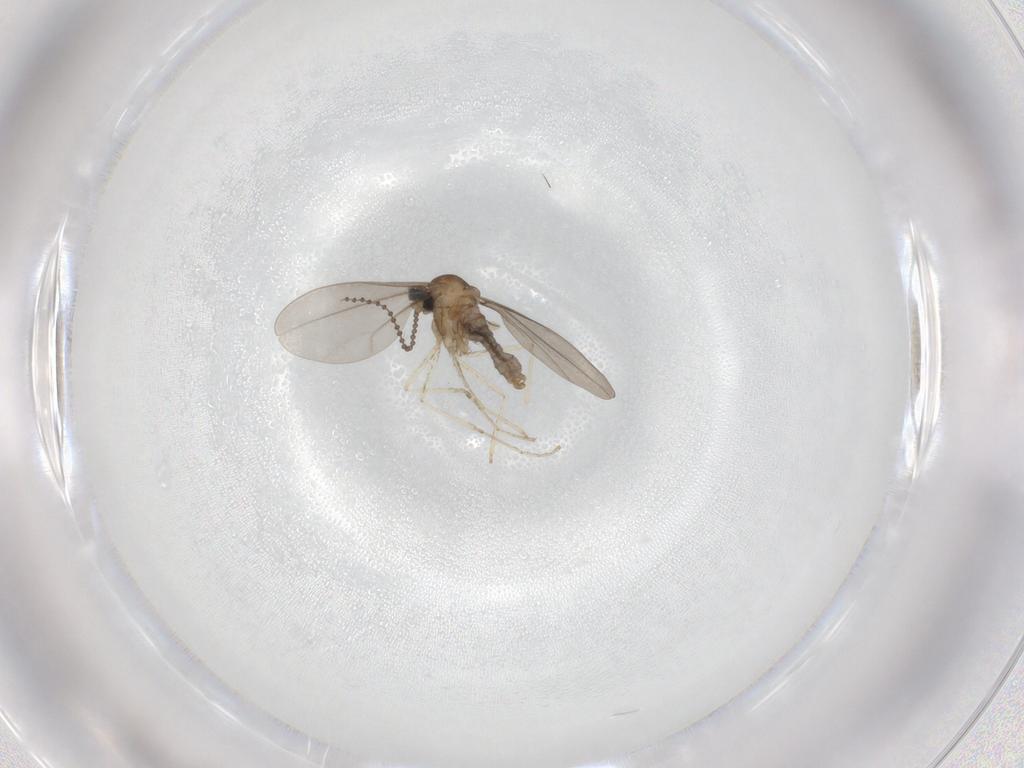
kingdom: Animalia
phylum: Arthropoda
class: Insecta
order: Diptera
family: Cecidomyiidae
